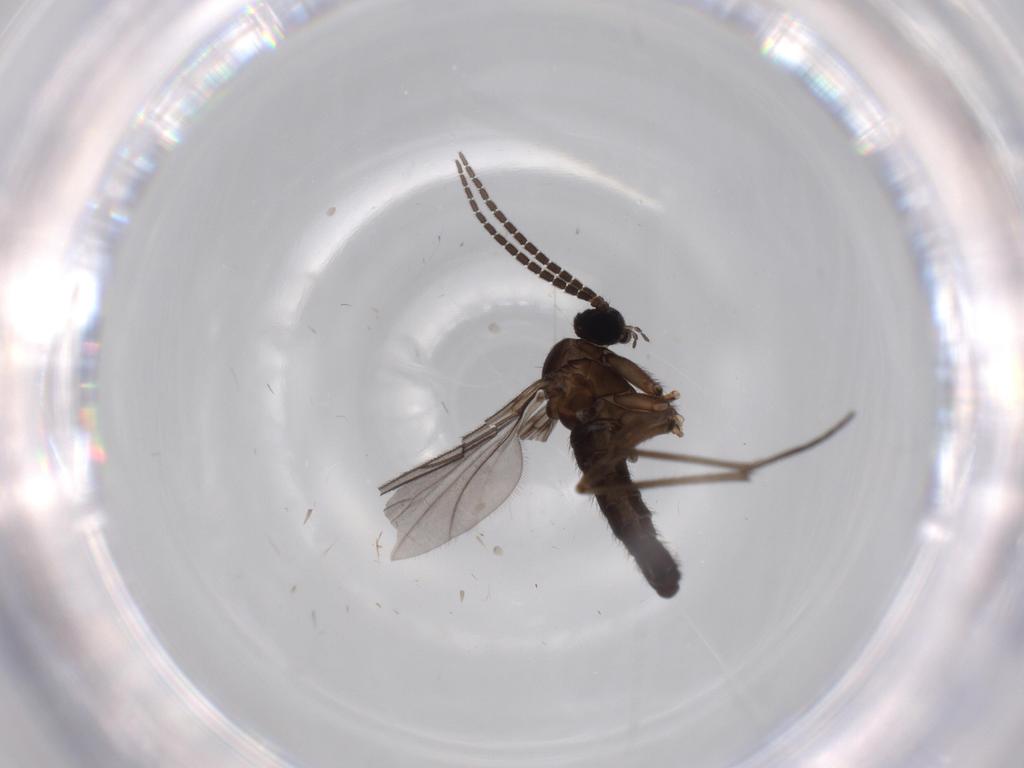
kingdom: Animalia
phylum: Arthropoda
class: Insecta
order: Diptera
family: Sciaridae
